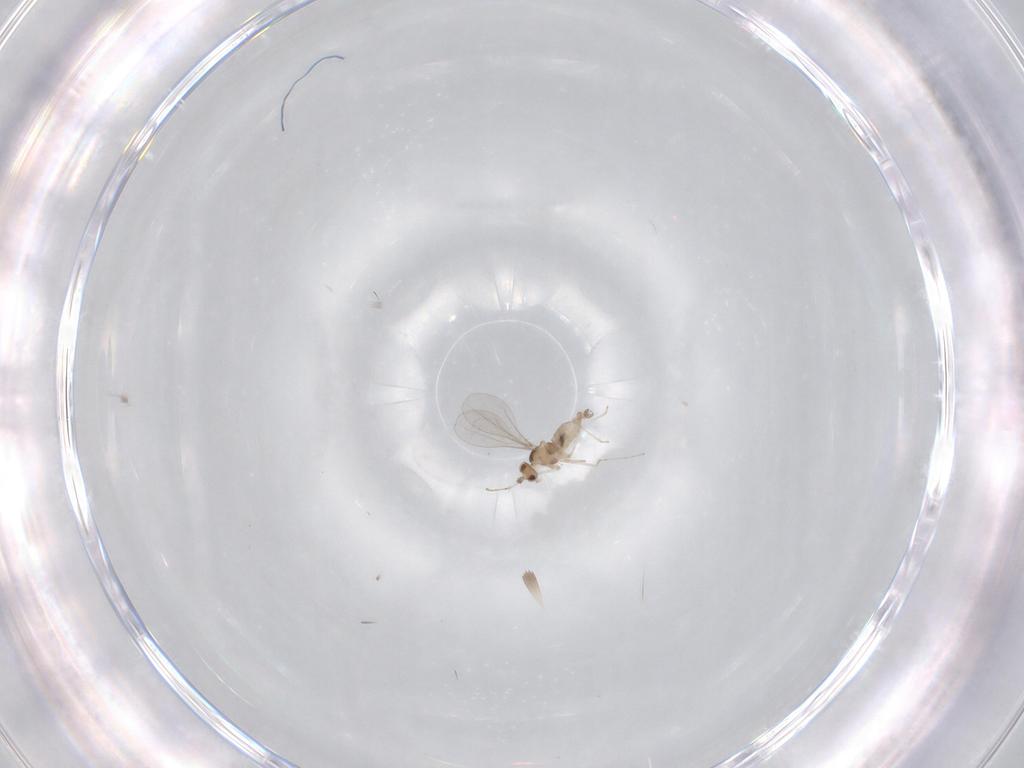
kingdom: Animalia
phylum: Arthropoda
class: Insecta
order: Diptera
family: Cecidomyiidae
